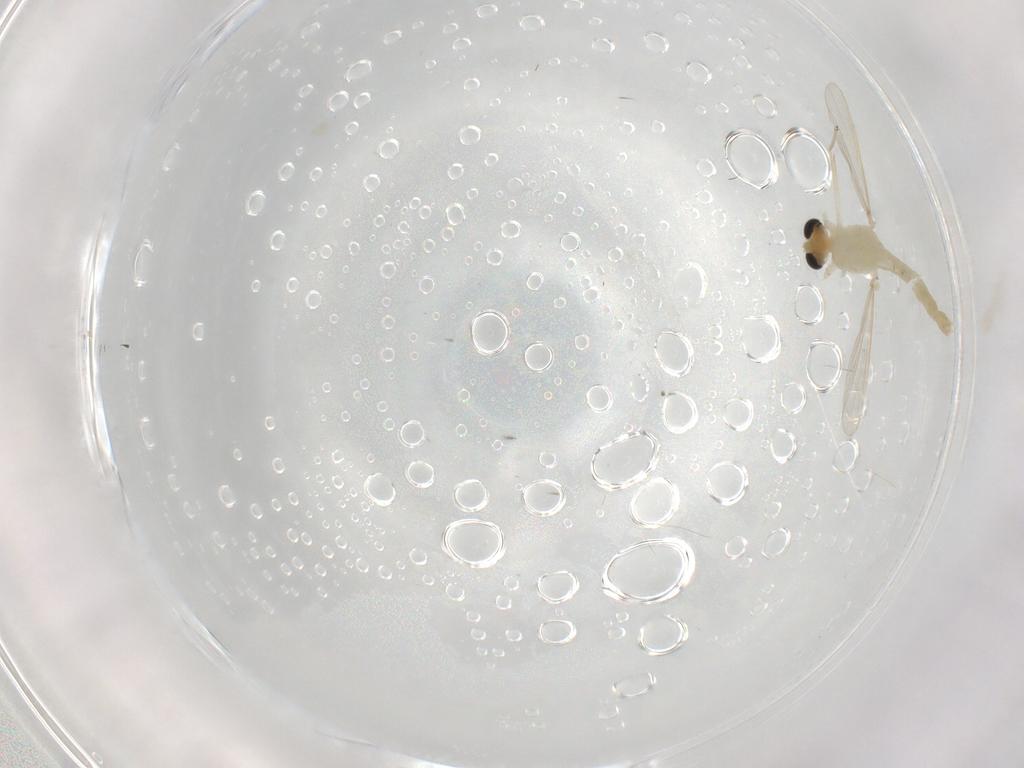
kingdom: Animalia
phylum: Arthropoda
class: Insecta
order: Diptera
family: Chironomidae
